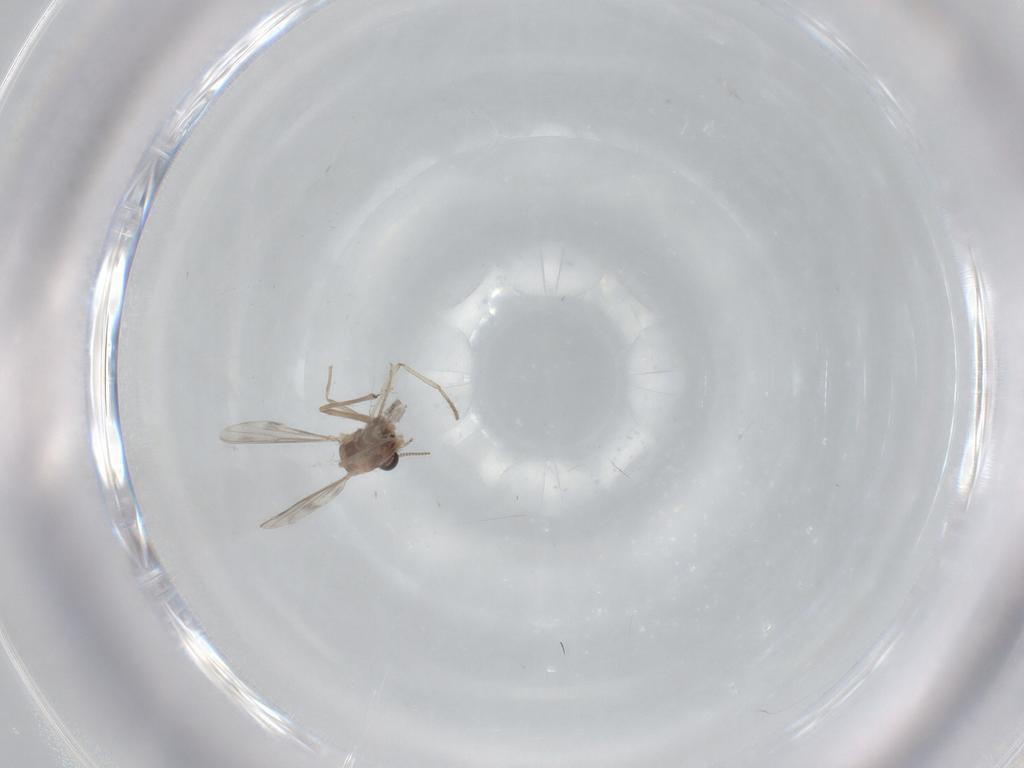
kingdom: Animalia
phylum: Arthropoda
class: Insecta
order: Diptera
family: Chironomidae
